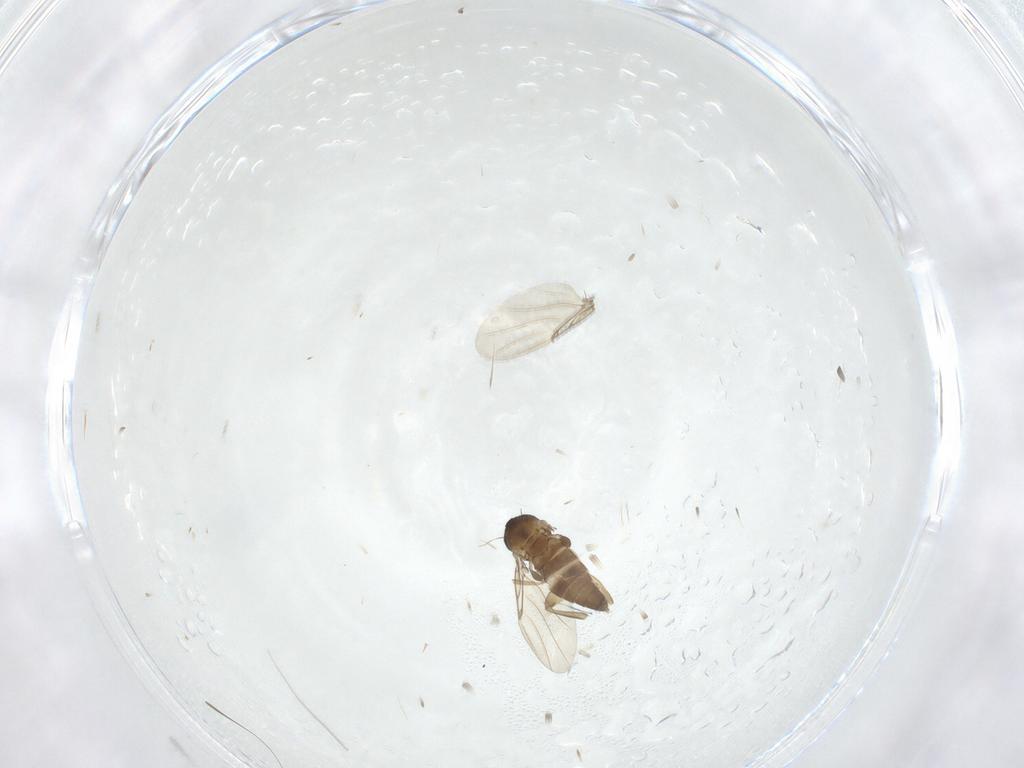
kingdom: Animalia
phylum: Arthropoda
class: Insecta
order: Diptera
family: Phoridae
